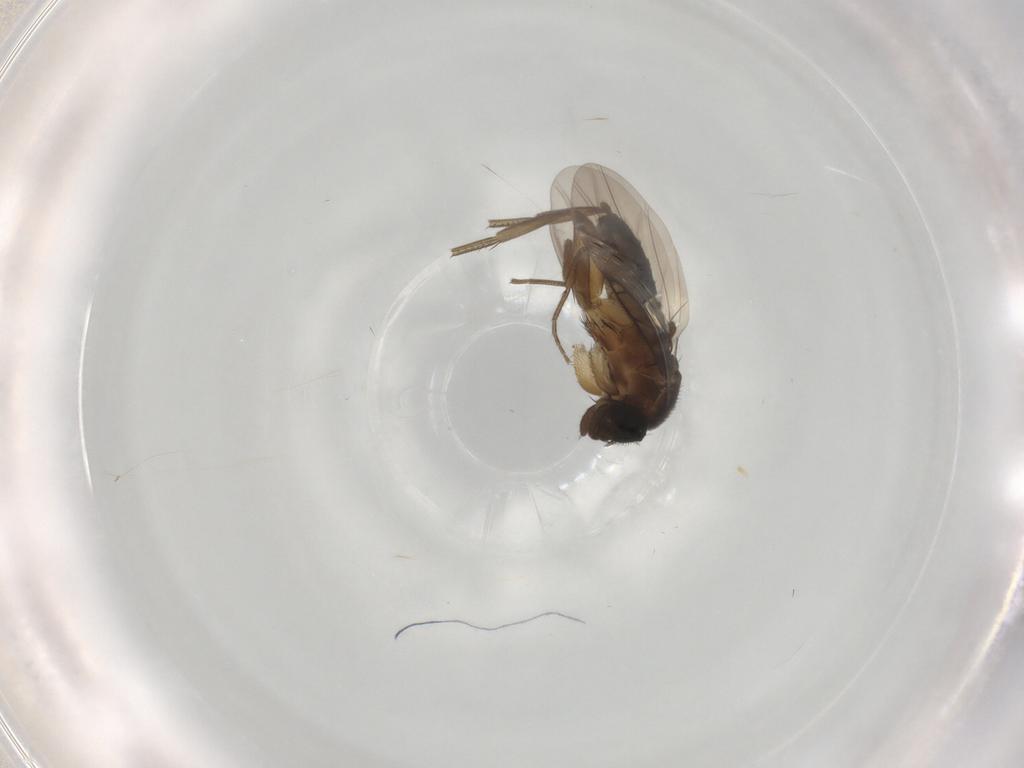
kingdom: Animalia
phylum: Arthropoda
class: Insecta
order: Diptera
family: Phoridae
